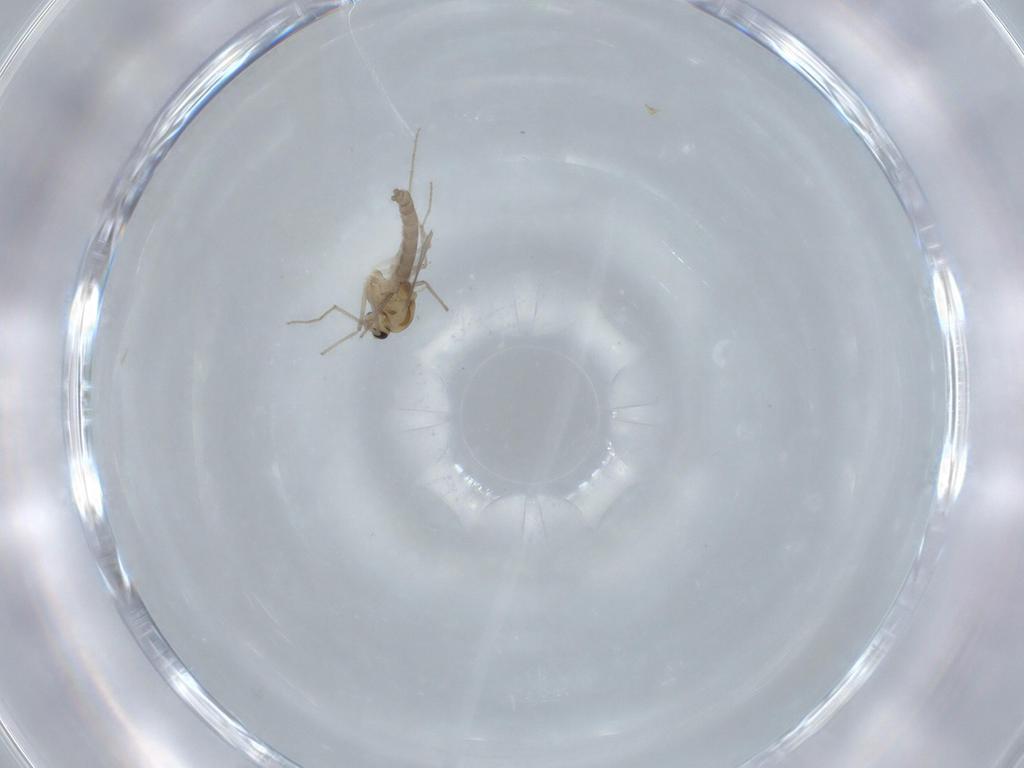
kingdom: Animalia
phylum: Arthropoda
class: Insecta
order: Diptera
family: Chironomidae
